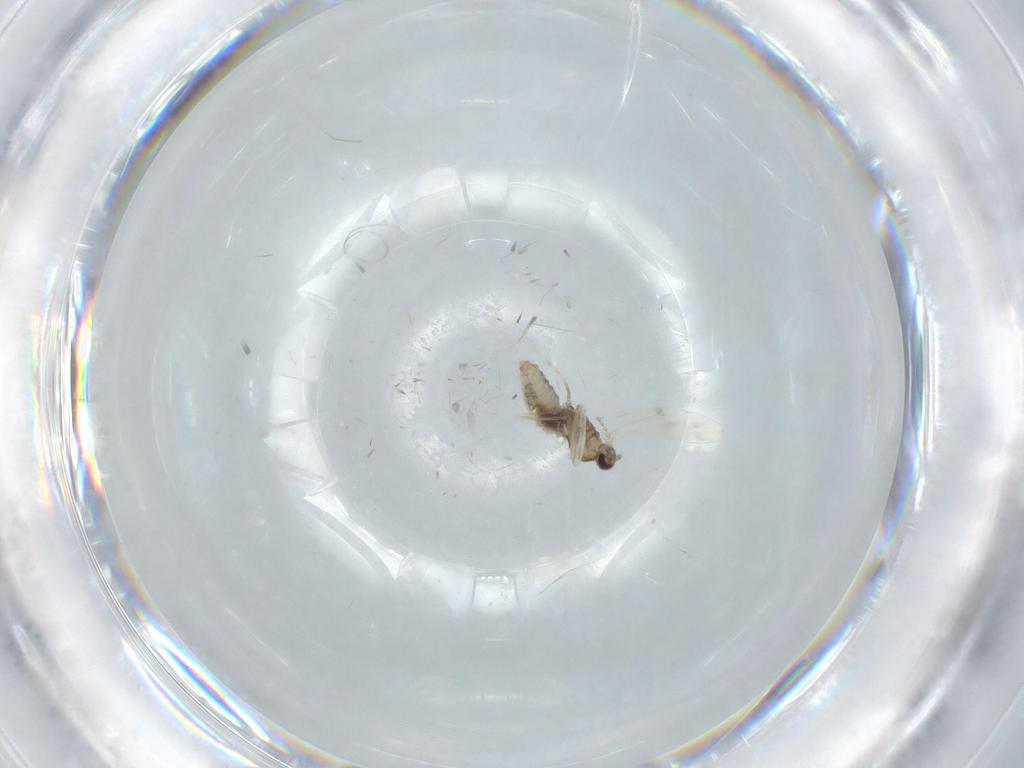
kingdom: Animalia
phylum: Arthropoda
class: Insecta
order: Diptera
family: Cecidomyiidae
